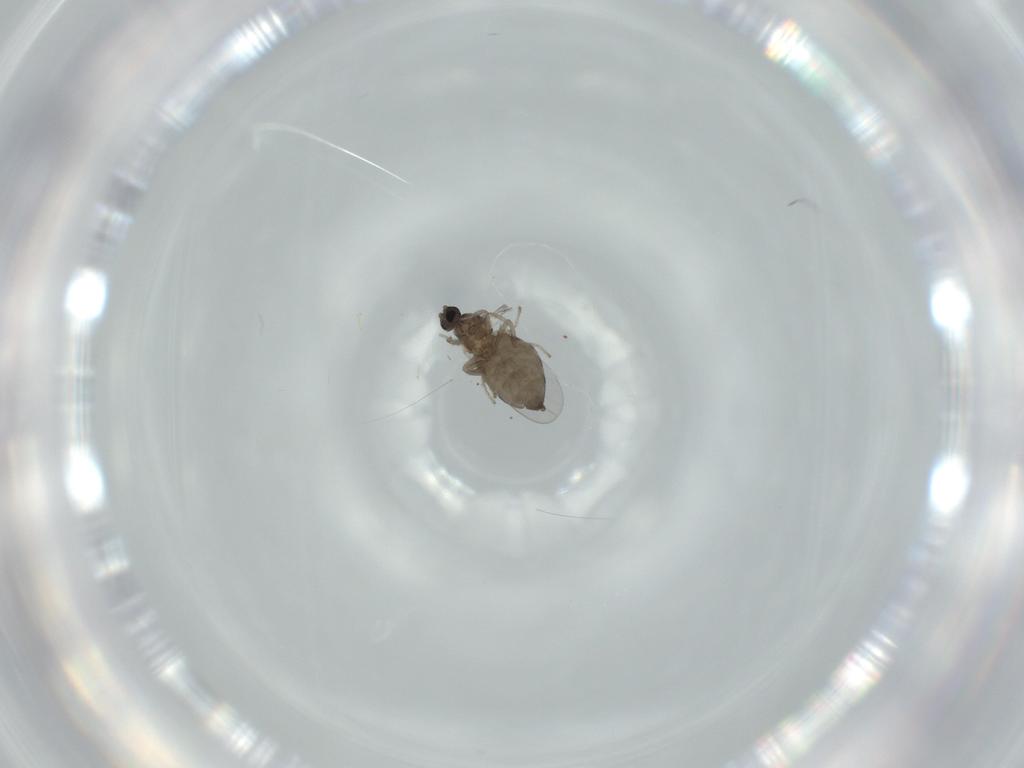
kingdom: Animalia
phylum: Arthropoda
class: Insecta
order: Diptera
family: Cecidomyiidae
